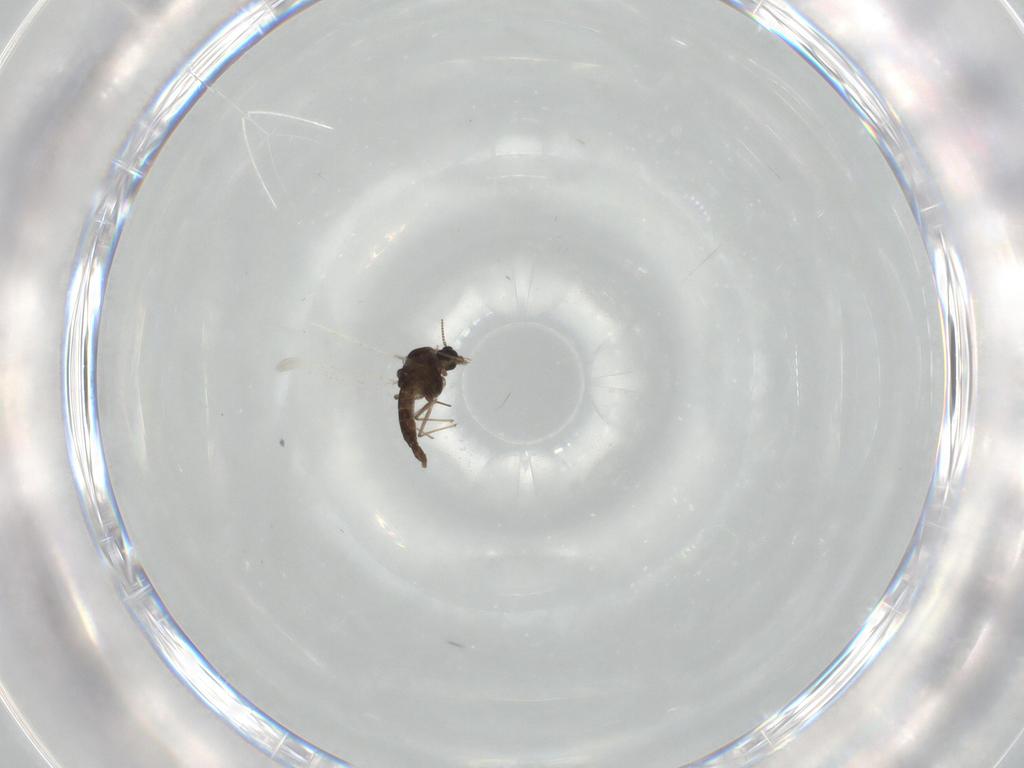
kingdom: Animalia
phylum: Arthropoda
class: Insecta
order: Diptera
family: Chironomidae
